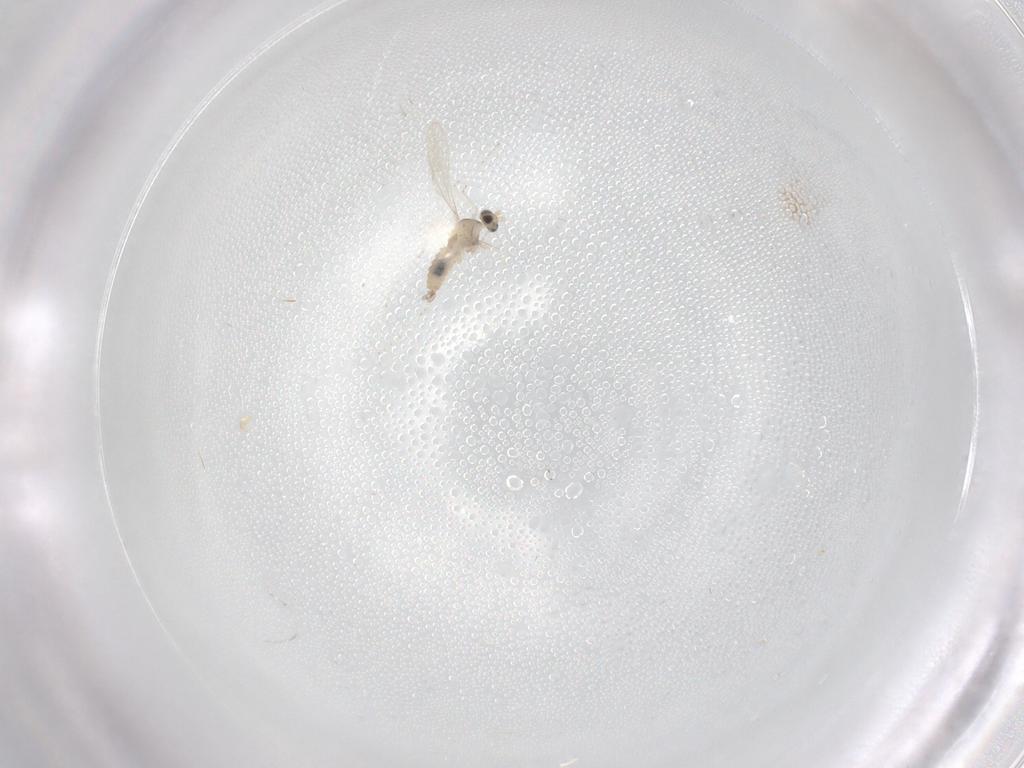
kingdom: Animalia
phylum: Arthropoda
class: Insecta
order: Diptera
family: Cecidomyiidae
